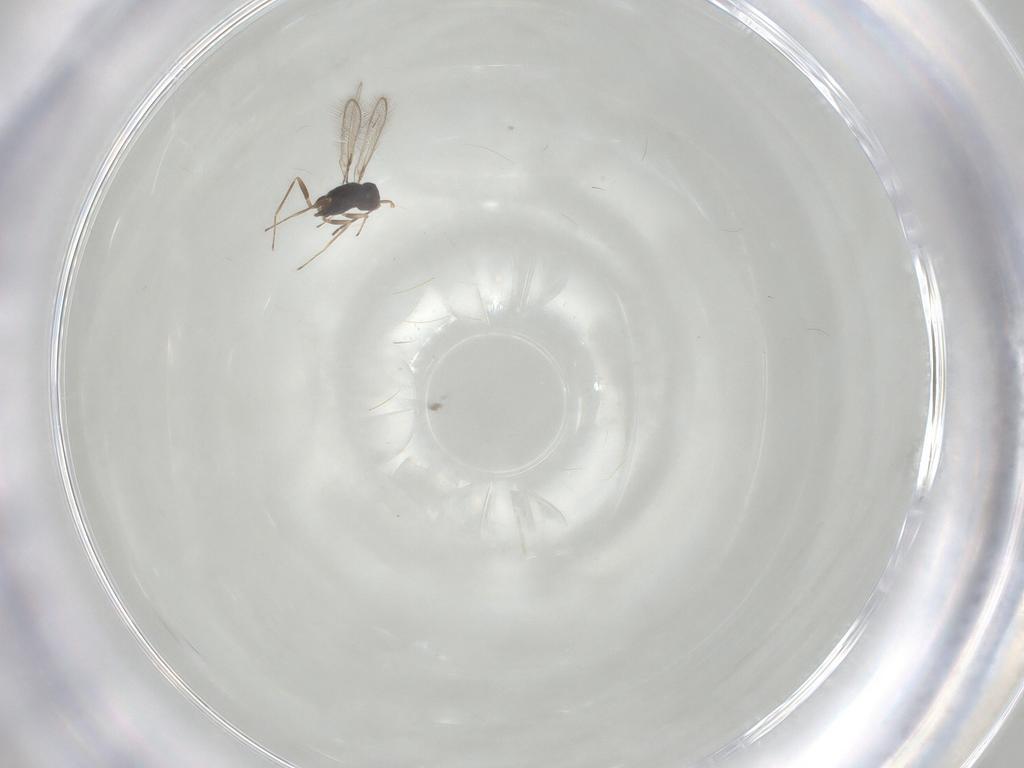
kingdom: Animalia
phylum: Arthropoda
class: Insecta
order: Hymenoptera
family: Mymaridae
